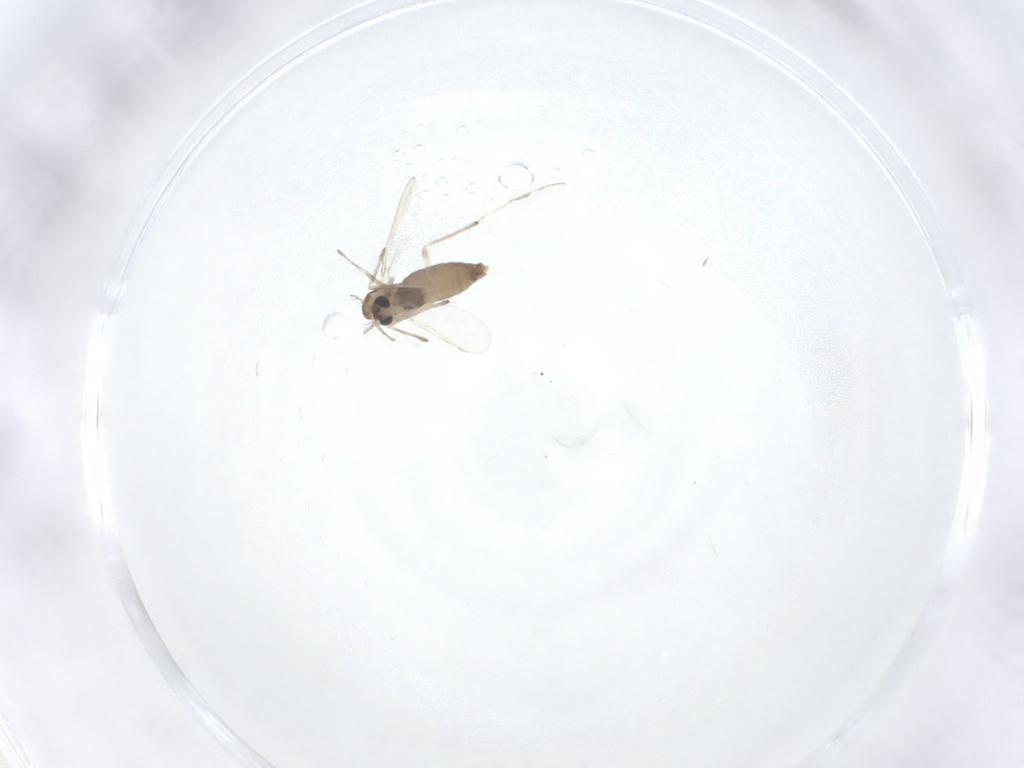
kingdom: Animalia
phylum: Arthropoda
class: Insecta
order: Diptera
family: Chironomidae
